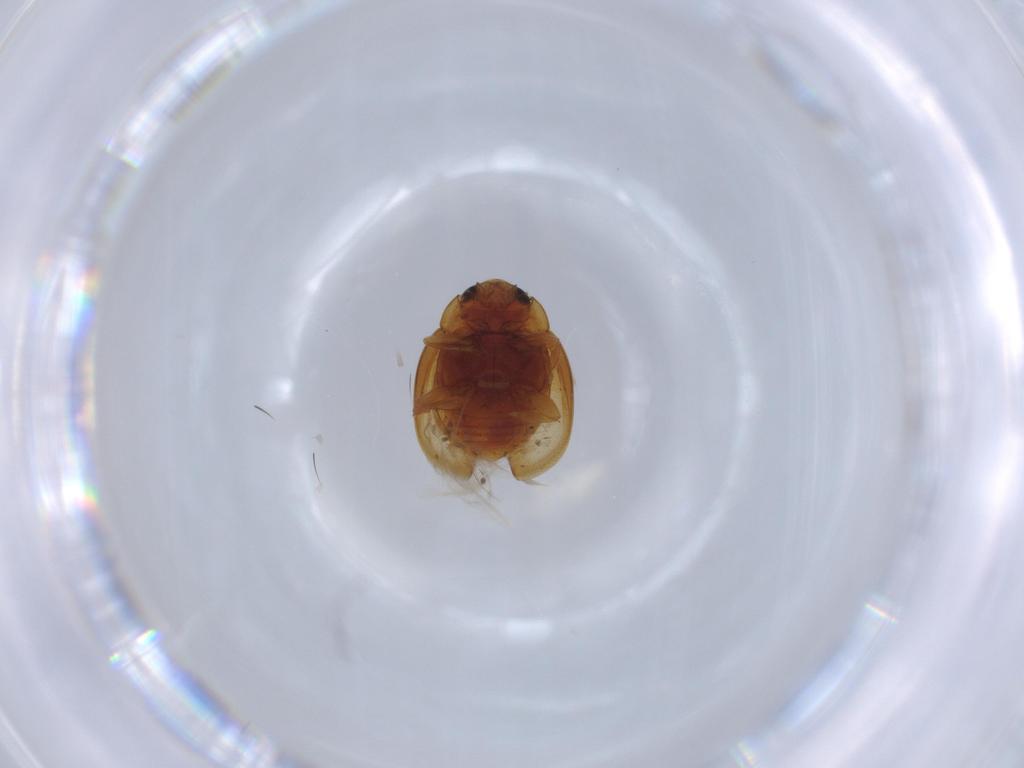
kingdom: Animalia
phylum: Arthropoda
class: Insecta
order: Coleoptera
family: Coccinellidae
